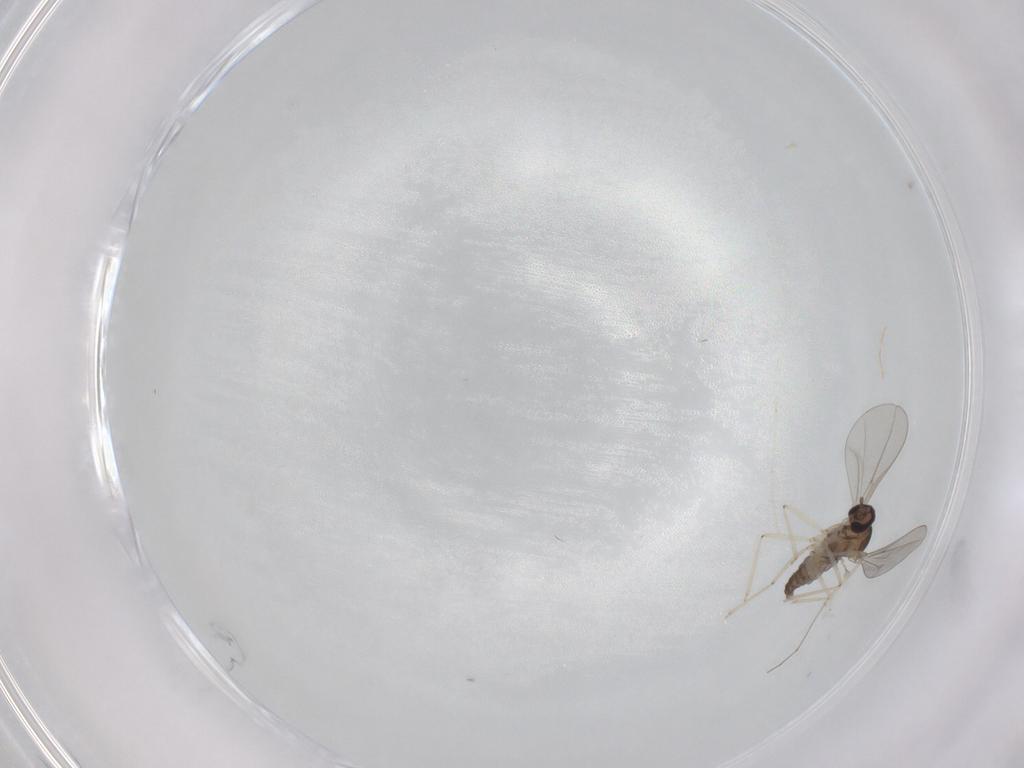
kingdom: Animalia
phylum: Arthropoda
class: Insecta
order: Diptera
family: Cecidomyiidae
